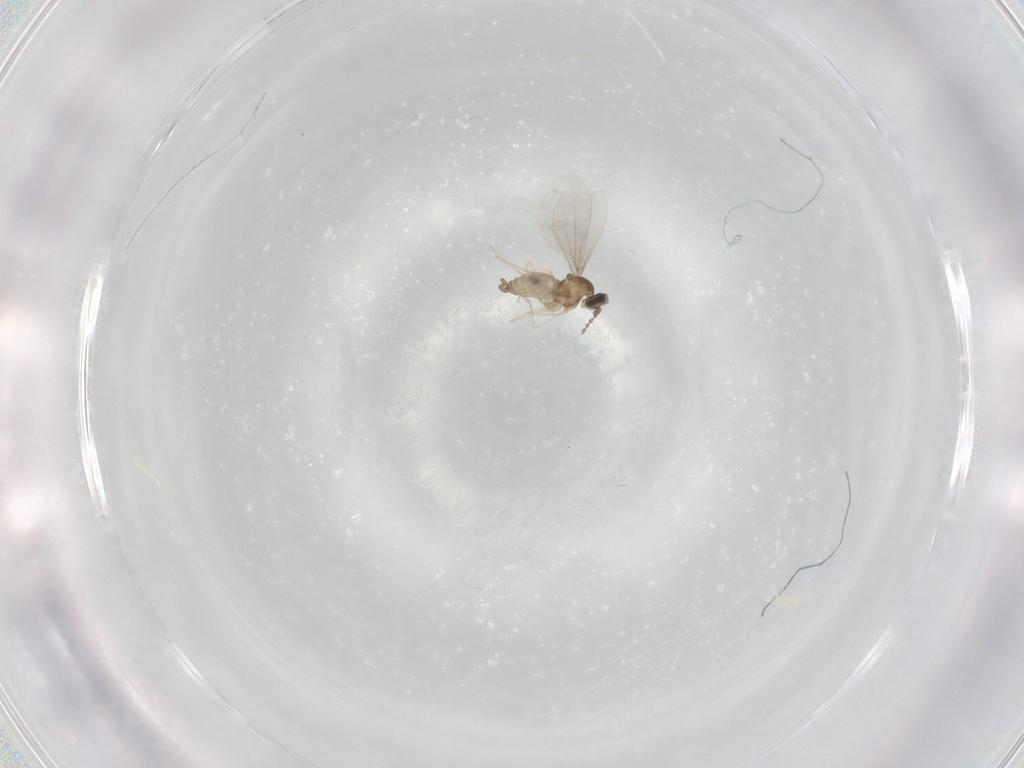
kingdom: Animalia
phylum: Arthropoda
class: Insecta
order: Diptera
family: Cecidomyiidae
